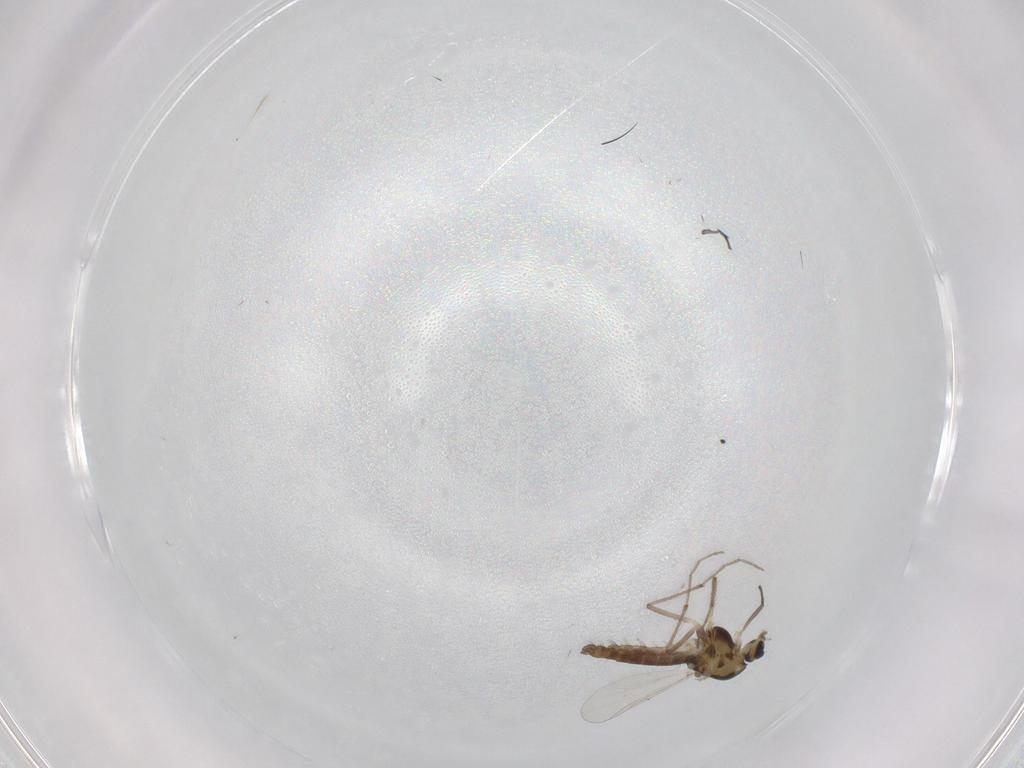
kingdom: Animalia
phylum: Arthropoda
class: Insecta
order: Diptera
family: Chironomidae
